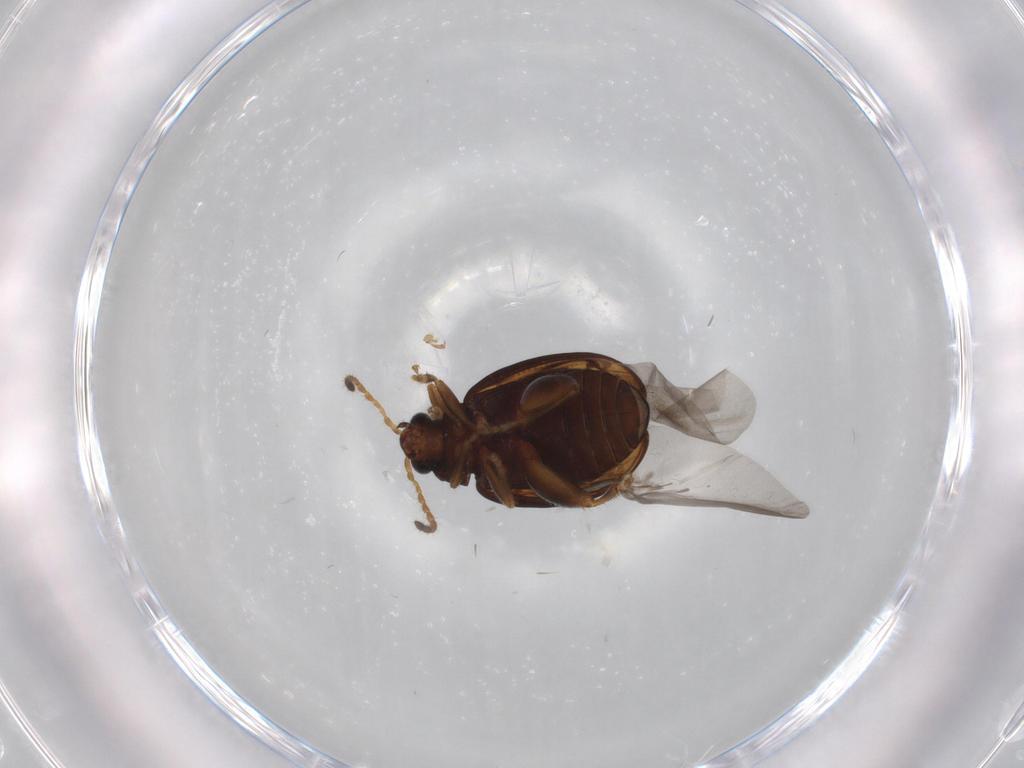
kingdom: Animalia
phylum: Arthropoda
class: Insecta
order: Coleoptera
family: Chrysomelidae
